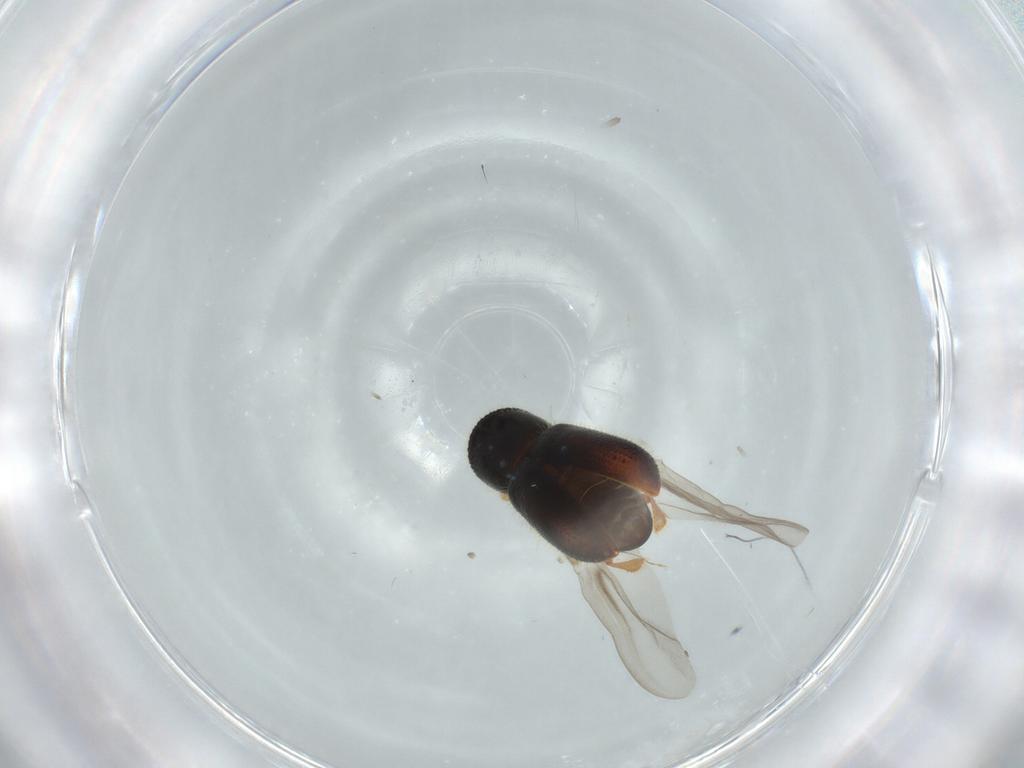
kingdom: Animalia
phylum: Arthropoda
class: Insecta
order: Coleoptera
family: Curculionidae
